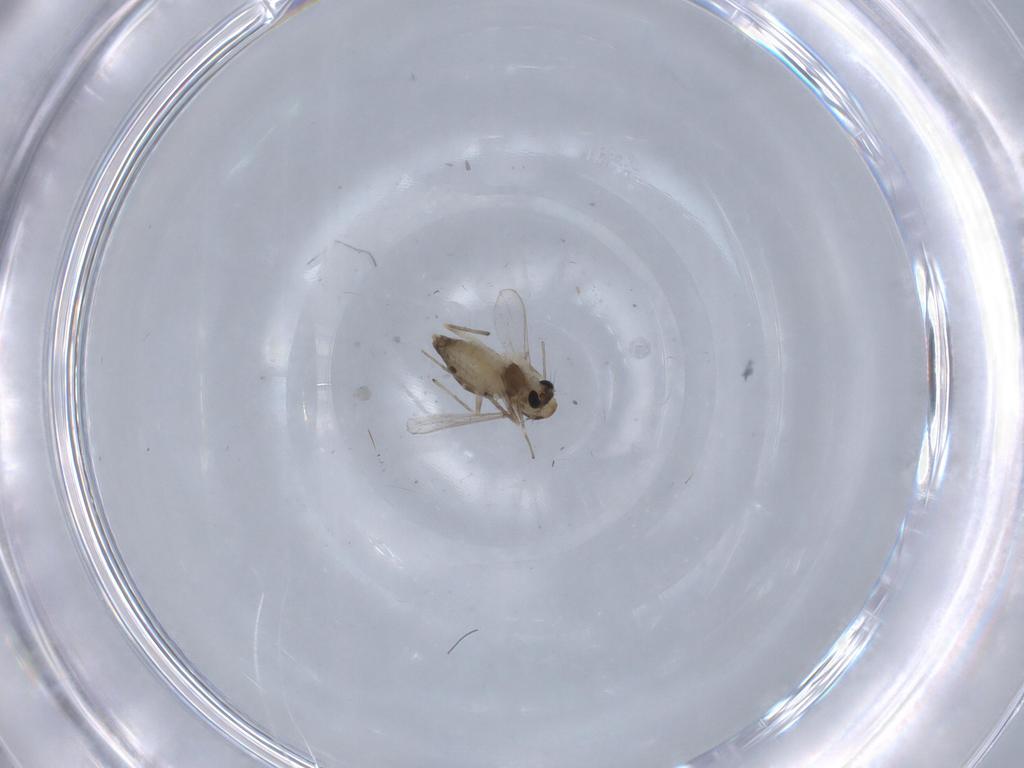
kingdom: Animalia
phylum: Arthropoda
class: Insecta
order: Diptera
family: Chironomidae
